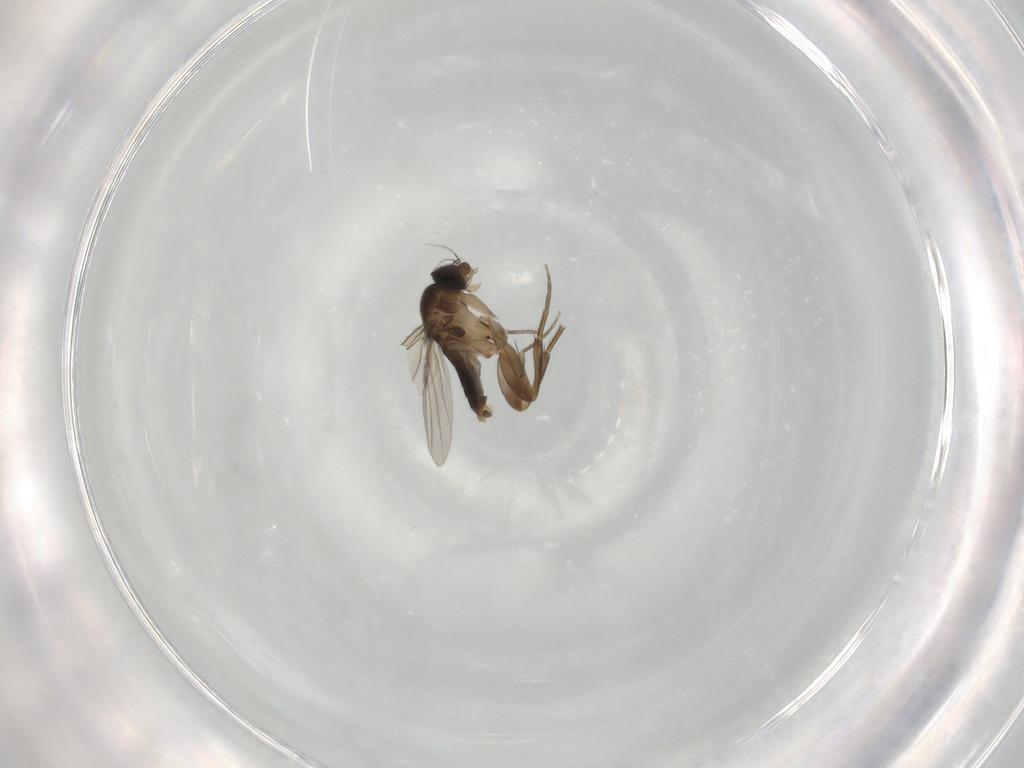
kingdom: Animalia
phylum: Arthropoda
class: Insecta
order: Diptera
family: Phoridae
